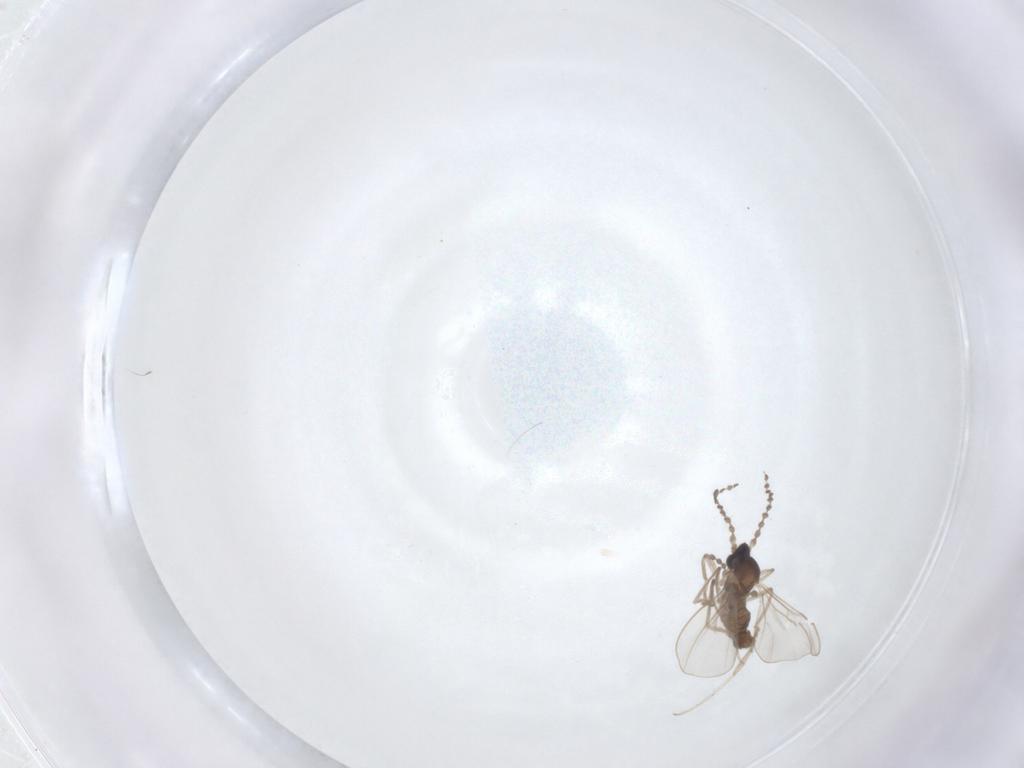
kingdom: Animalia
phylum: Arthropoda
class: Insecta
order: Diptera
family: Cecidomyiidae
